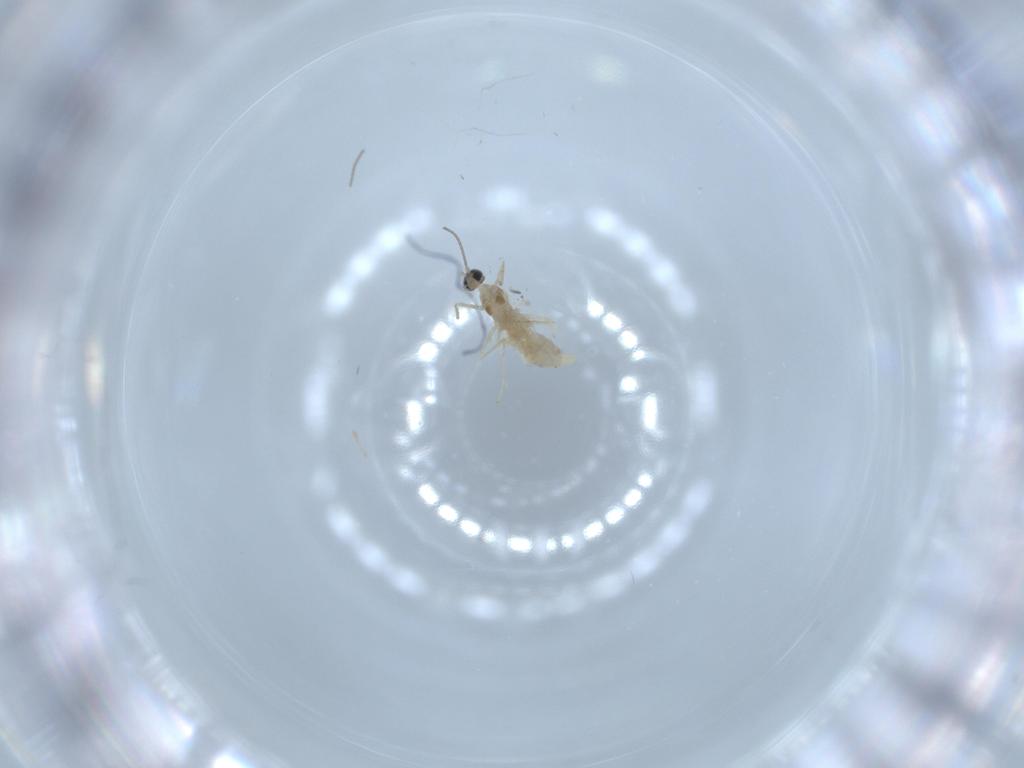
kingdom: Animalia
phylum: Arthropoda
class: Insecta
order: Diptera
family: Cecidomyiidae
